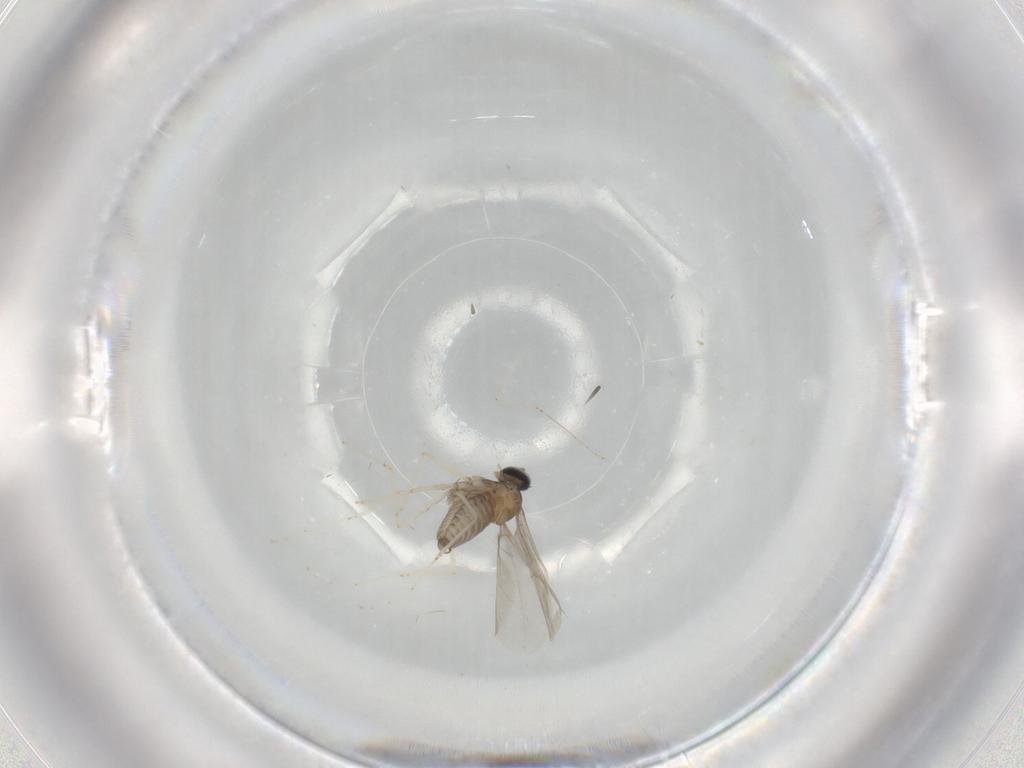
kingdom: Animalia
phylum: Arthropoda
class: Insecta
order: Diptera
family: Cecidomyiidae
